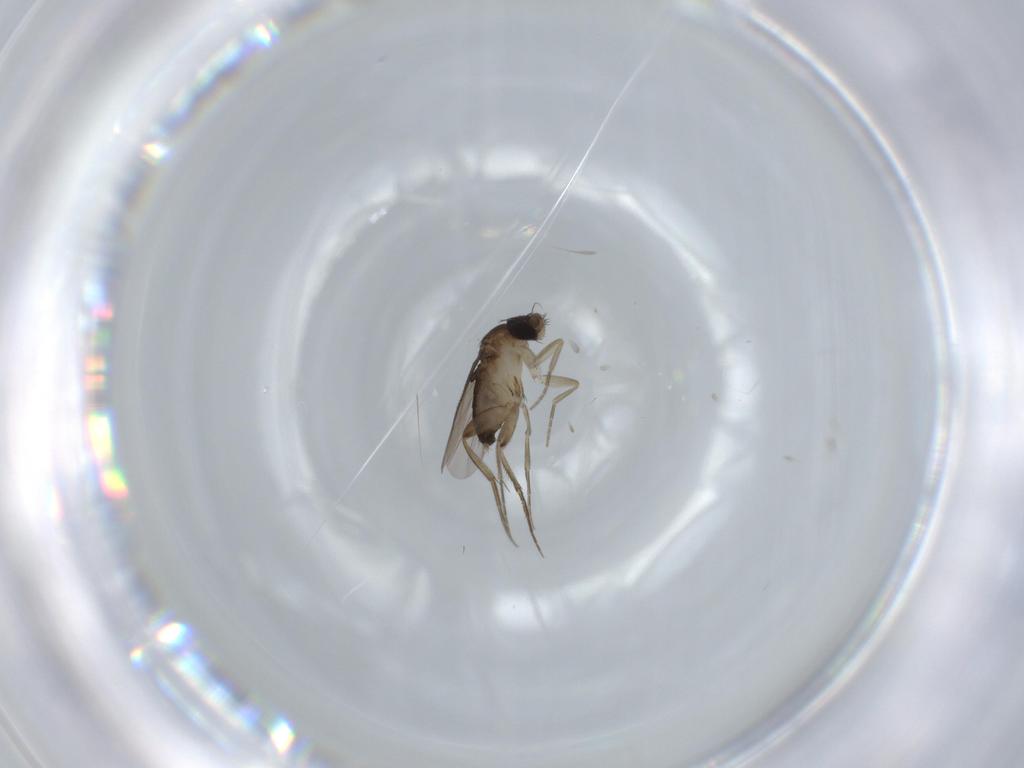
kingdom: Animalia
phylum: Arthropoda
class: Insecta
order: Diptera
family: Phoridae
